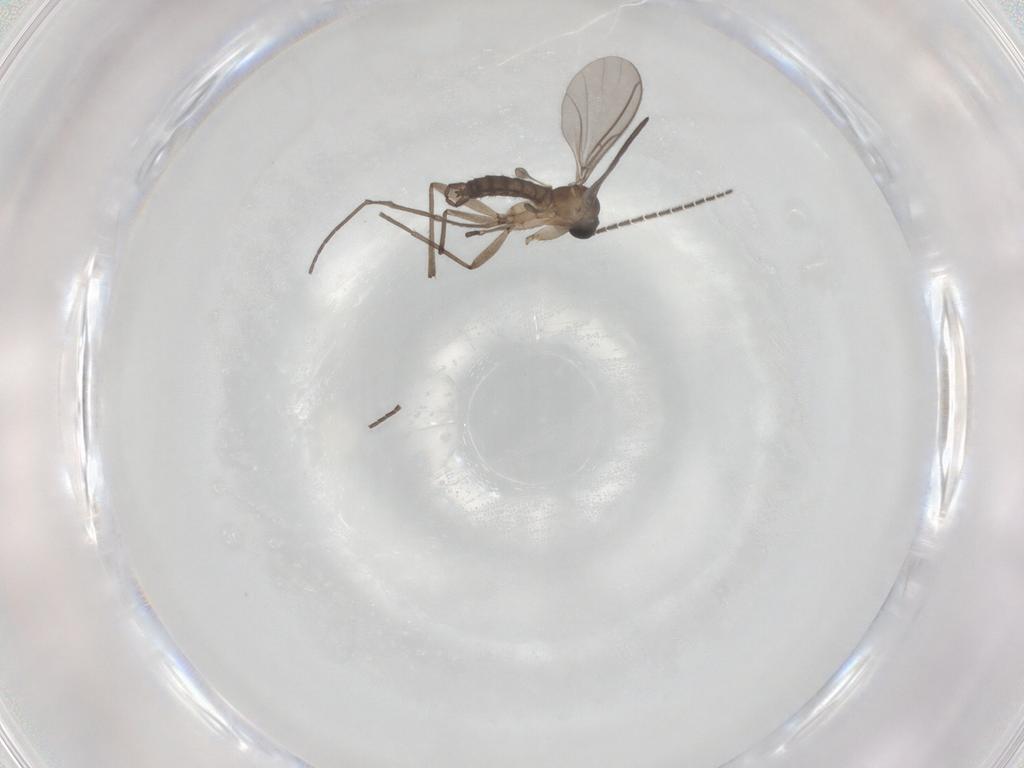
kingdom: Animalia
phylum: Arthropoda
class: Insecta
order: Diptera
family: Sciaridae
